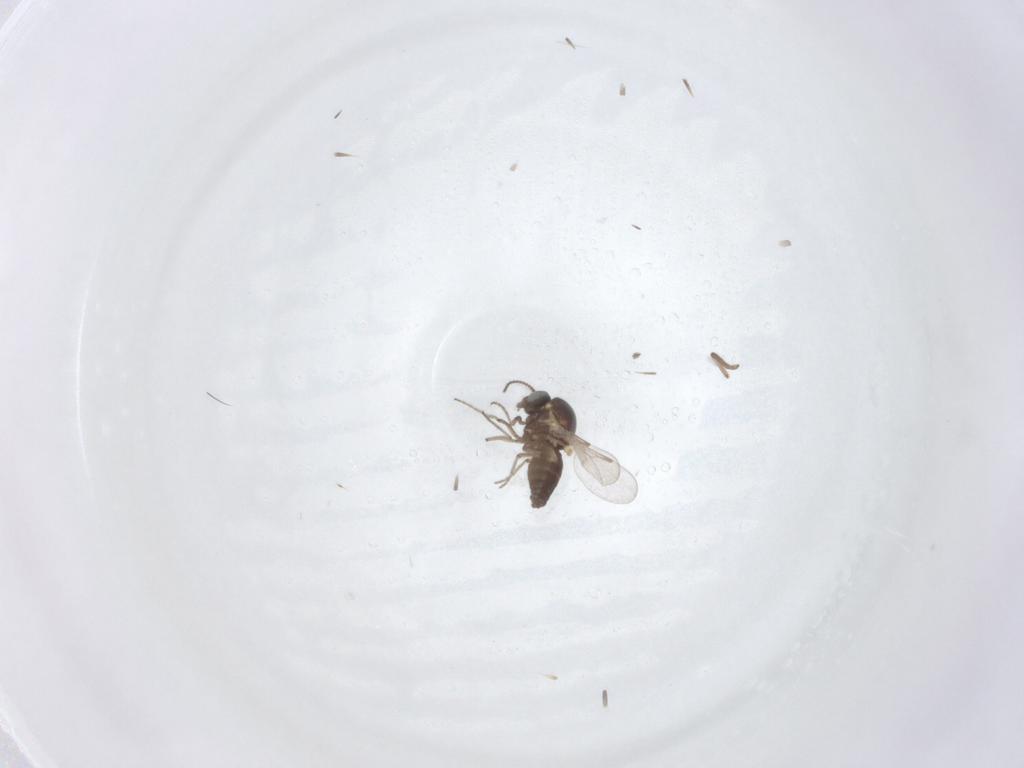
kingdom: Animalia
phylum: Arthropoda
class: Insecta
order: Diptera
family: Ceratopogonidae
